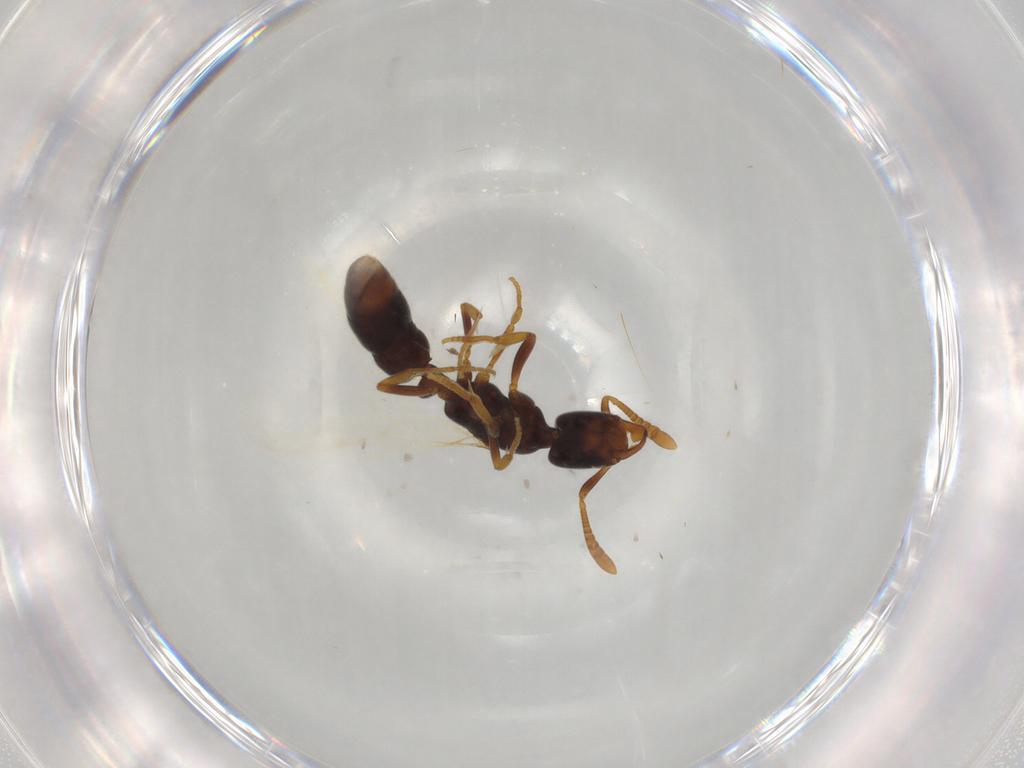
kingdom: Animalia
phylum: Arthropoda
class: Insecta
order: Hymenoptera
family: Formicidae
